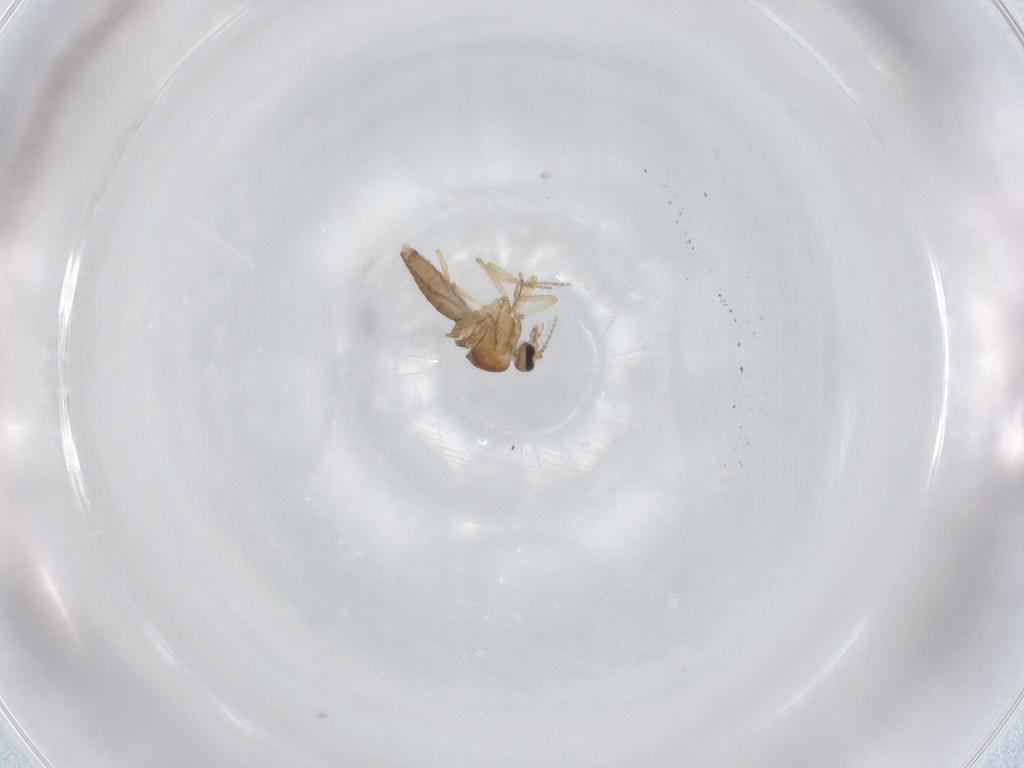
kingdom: Animalia
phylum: Arthropoda
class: Insecta
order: Diptera
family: Ceratopogonidae
